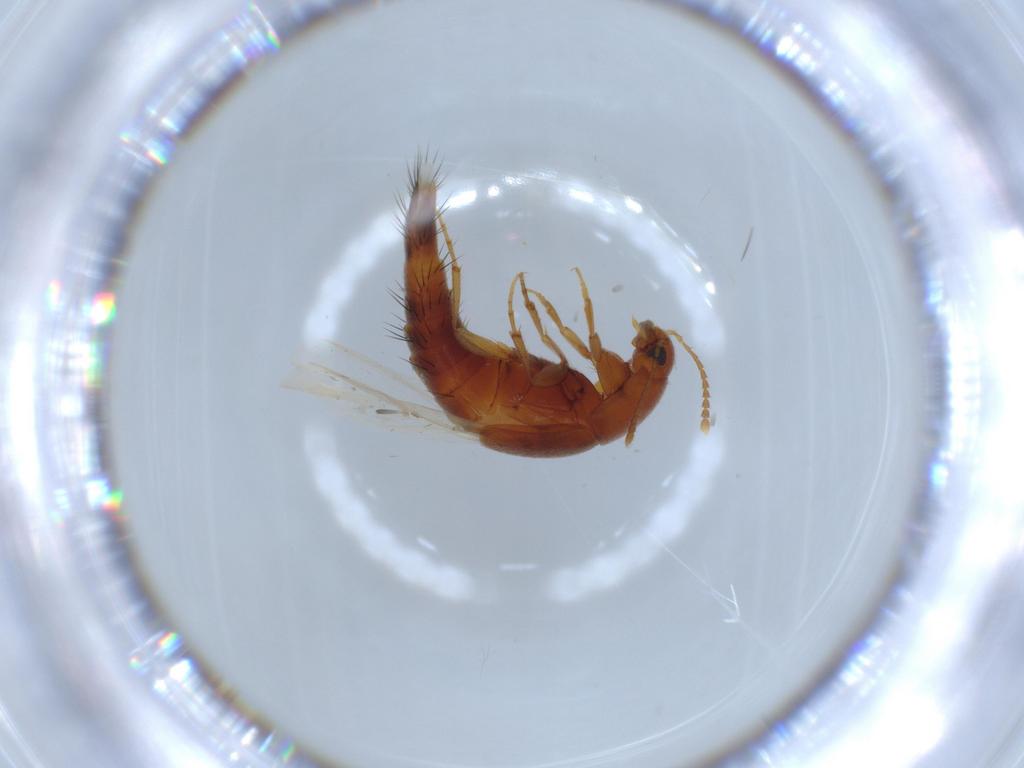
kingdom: Animalia
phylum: Arthropoda
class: Insecta
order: Coleoptera
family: Staphylinidae
